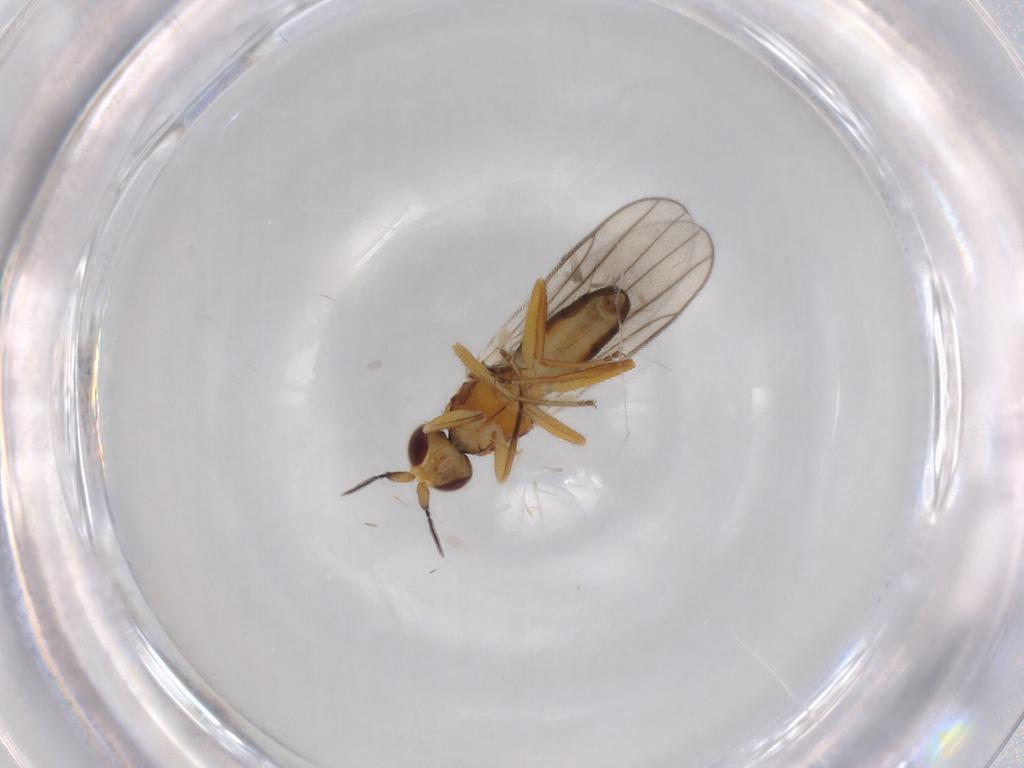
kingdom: Animalia
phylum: Arthropoda
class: Insecta
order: Diptera
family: Chloropidae
